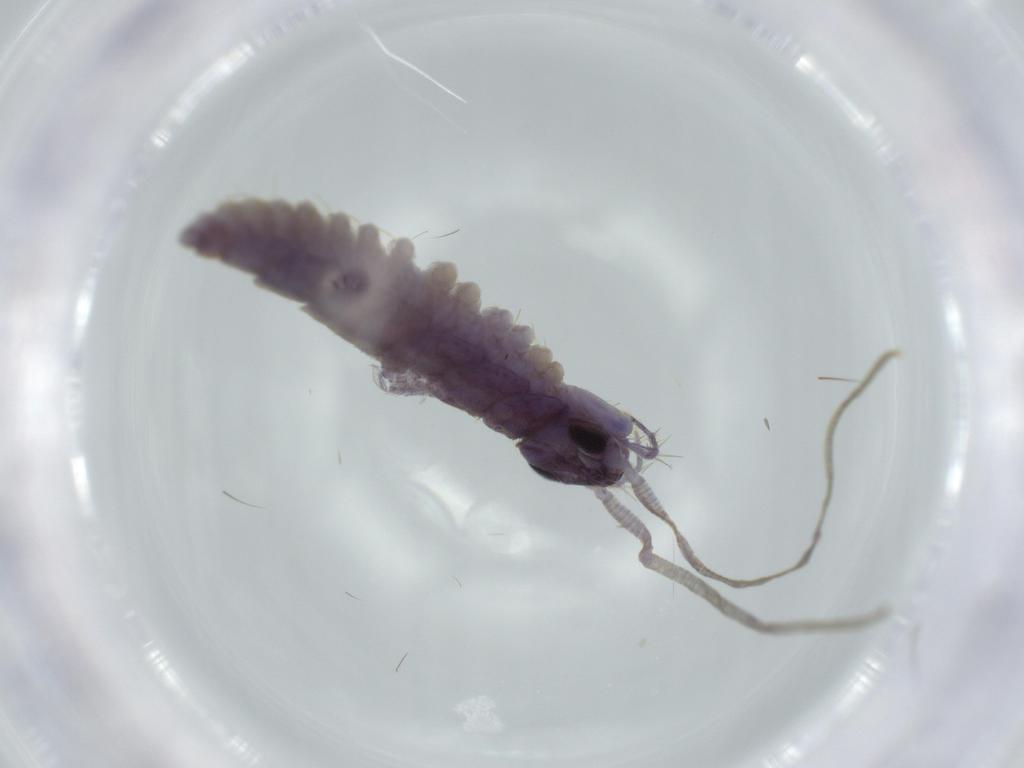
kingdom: Animalia
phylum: Arthropoda
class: Chilopoda
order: Scutigeromorpha
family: Scutigeridae
